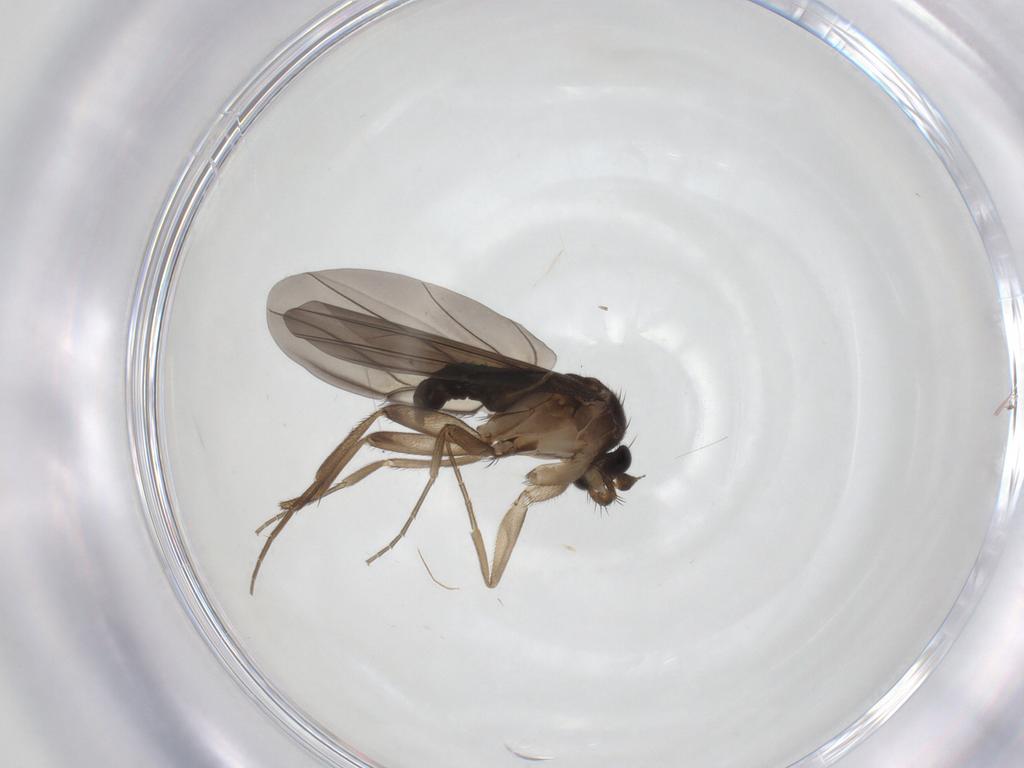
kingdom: Animalia
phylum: Arthropoda
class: Insecta
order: Diptera
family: Phoridae
